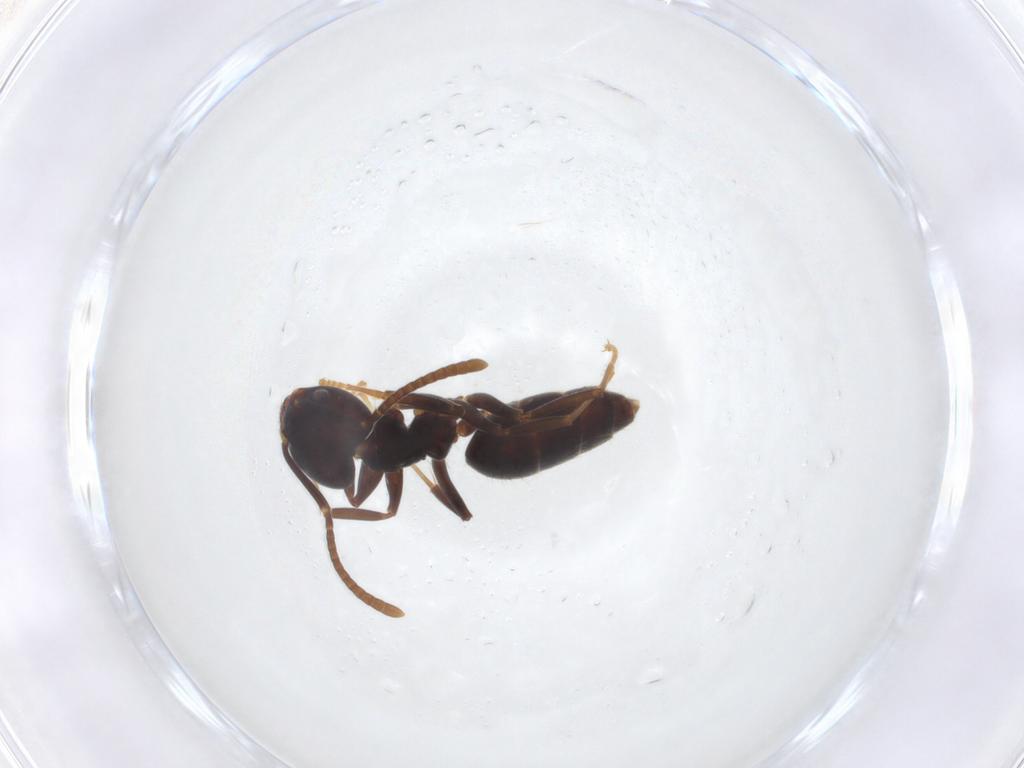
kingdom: Animalia
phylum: Arthropoda
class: Insecta
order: Hymenoptera
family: Formicidae
